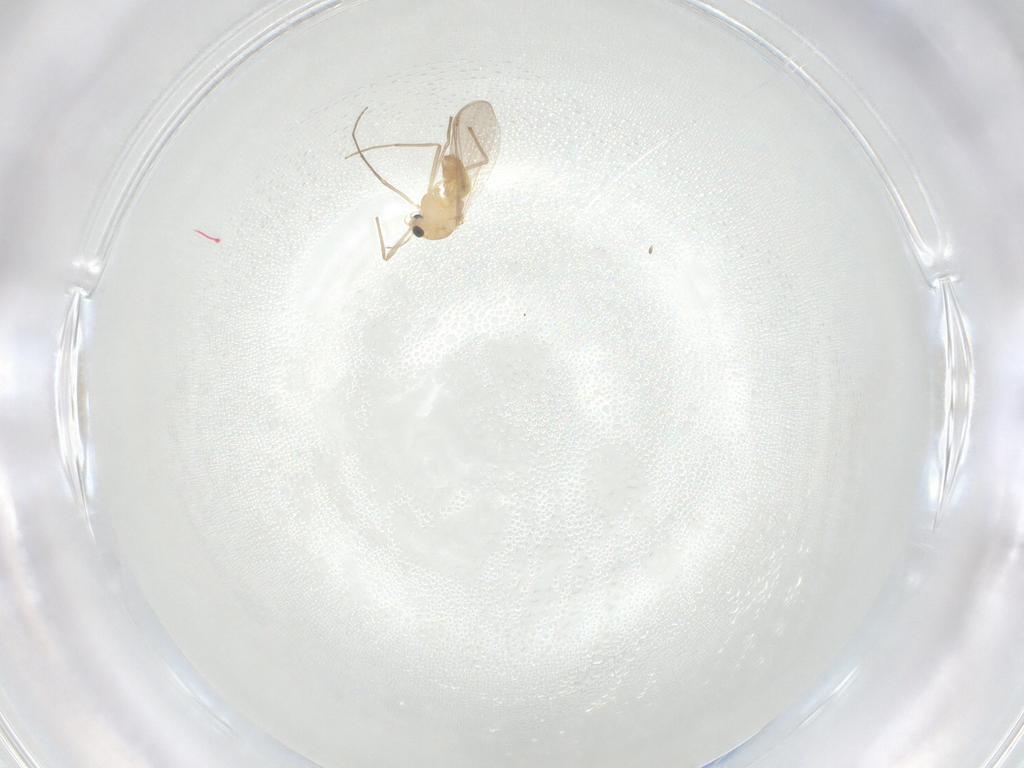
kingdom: Animalia
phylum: Arthropoda
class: Insecta
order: Diptera
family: Chironomidae
